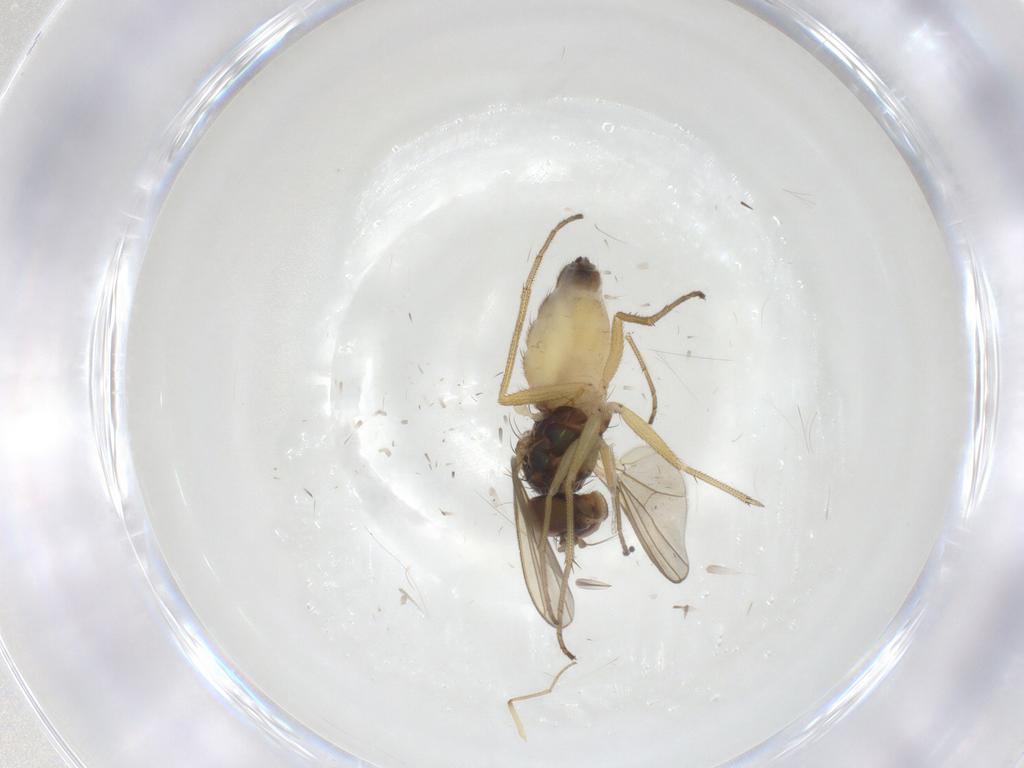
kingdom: Animalia
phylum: Arthropoda
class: Insecta
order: Diptera
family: Dolichopodidae
